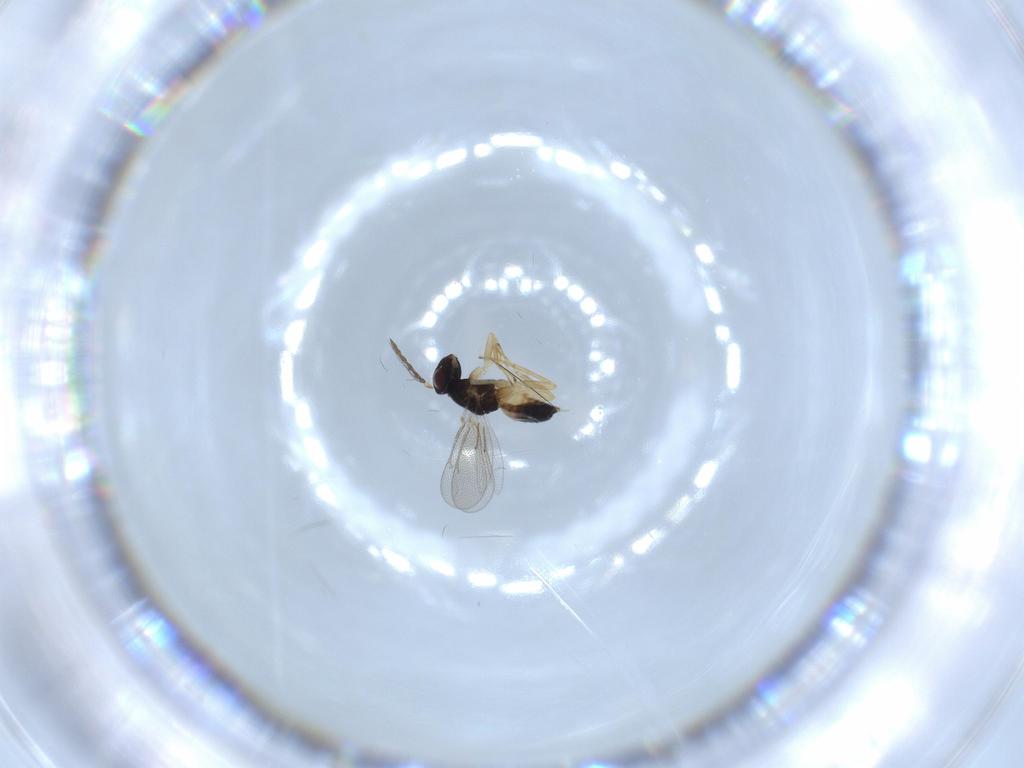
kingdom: Animalia
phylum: Arthropoda
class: Insecta
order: Hymenoptera
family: Eulophidae
